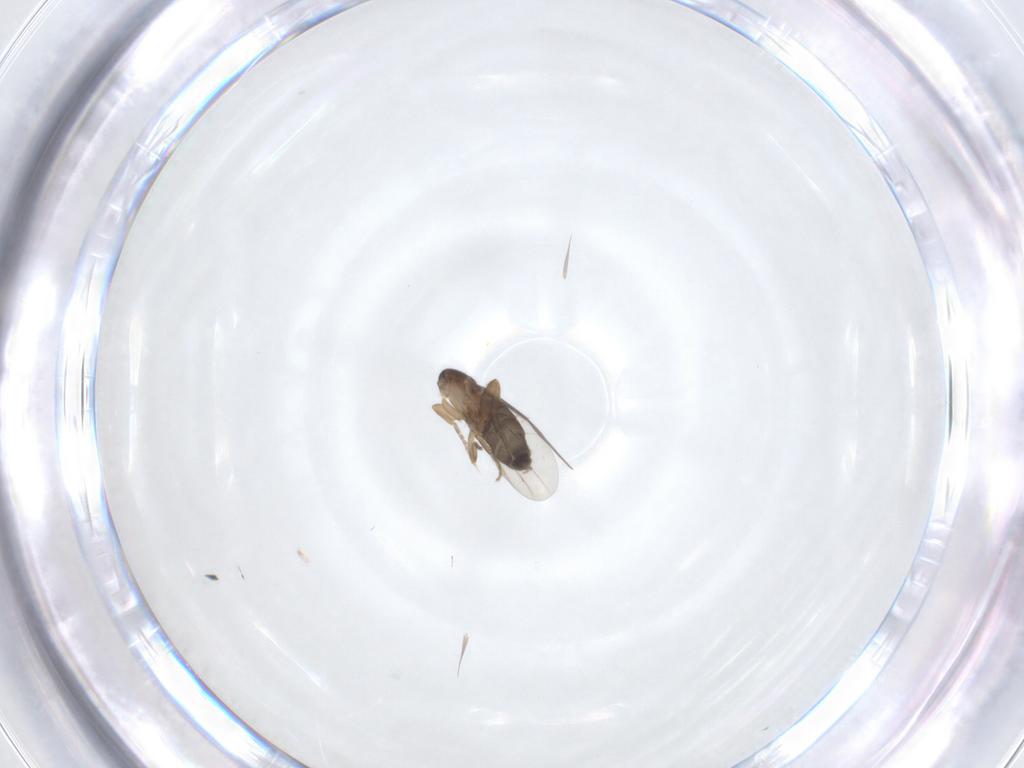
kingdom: Animalia
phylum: Arthropoda
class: Insecta
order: Diptera
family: Phoridae
